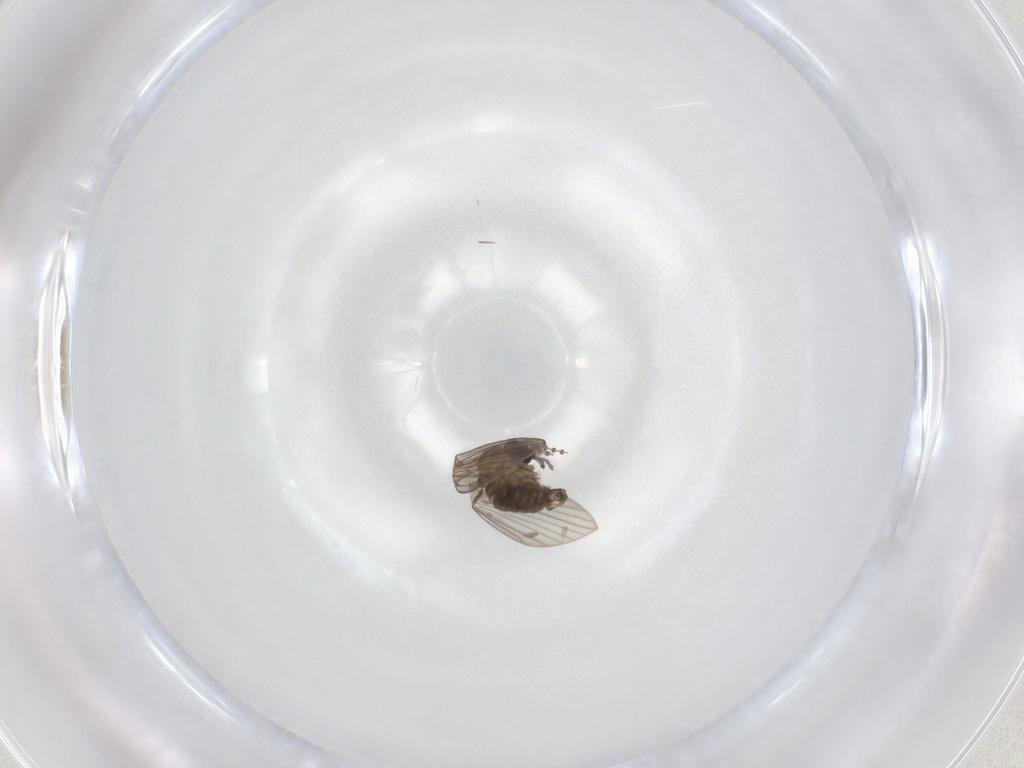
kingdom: Animalia
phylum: Arthropoda
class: Insecta
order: Diptera
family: Psychodidae
